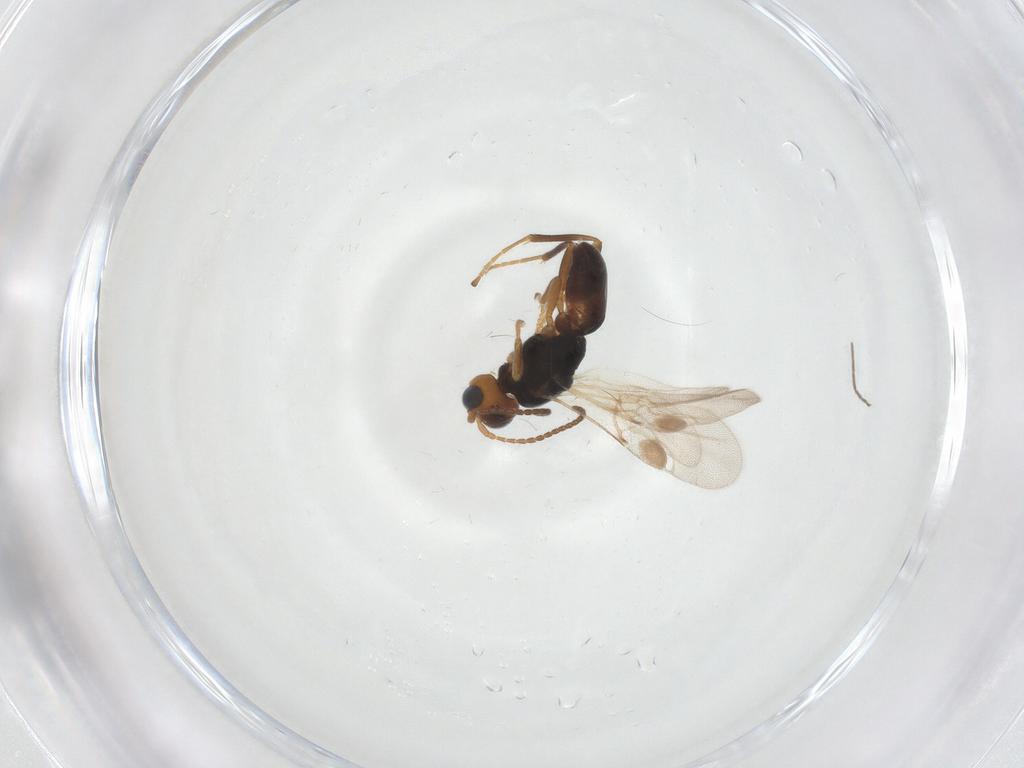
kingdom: Animalia
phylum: Arthropoda
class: Insecta
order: Hymenoptera
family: Braconidae
